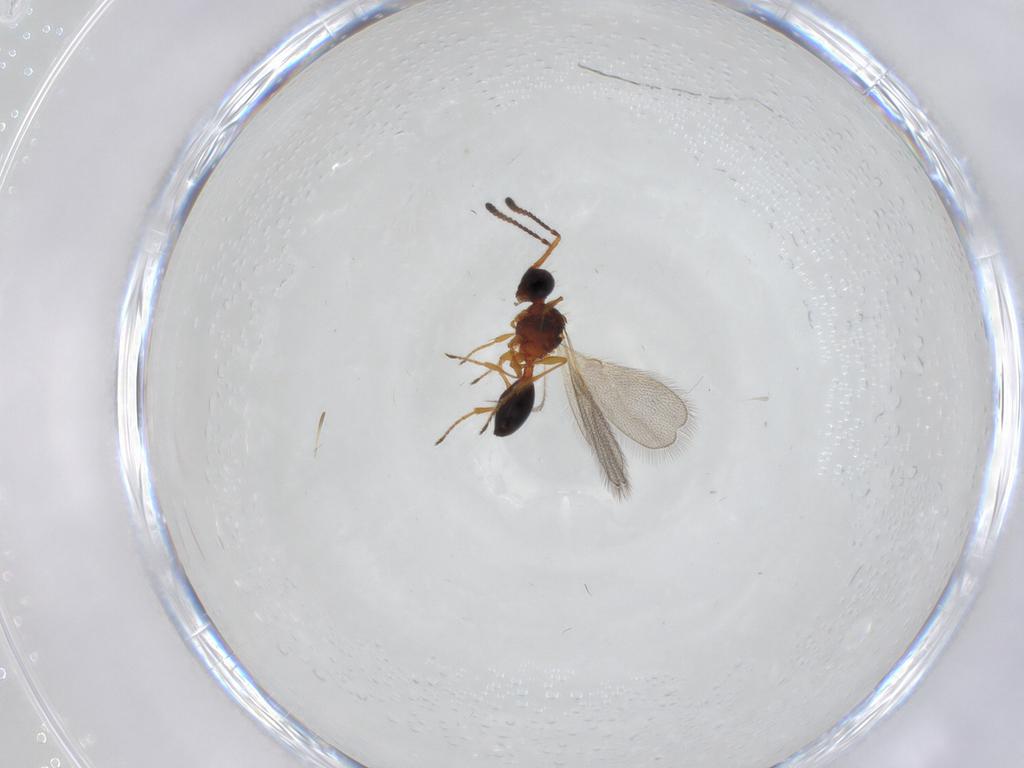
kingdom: Animalia
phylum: Arthropoda
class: Insecta
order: Hymenoptera
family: Diapriidae
